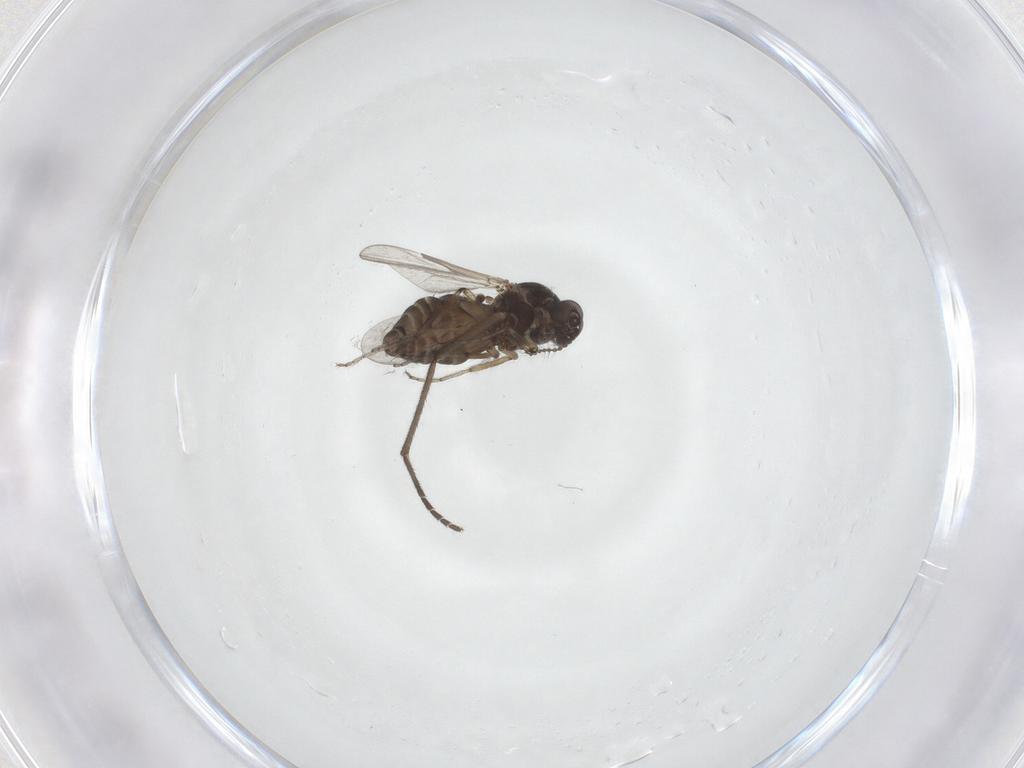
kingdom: Animalia
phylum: Arthropoda
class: Insecta
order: Diptera
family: Sciaridae
